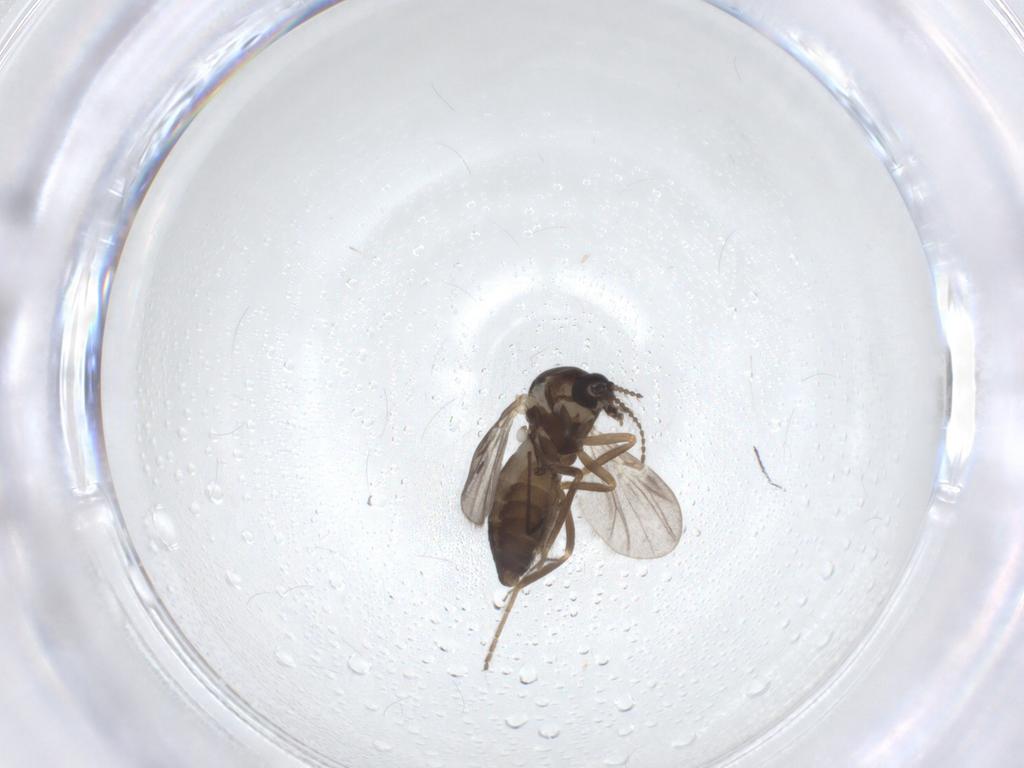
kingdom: Animalia
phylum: Arthropoda
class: Insecta
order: Diptera
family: Ceratopogonidae
